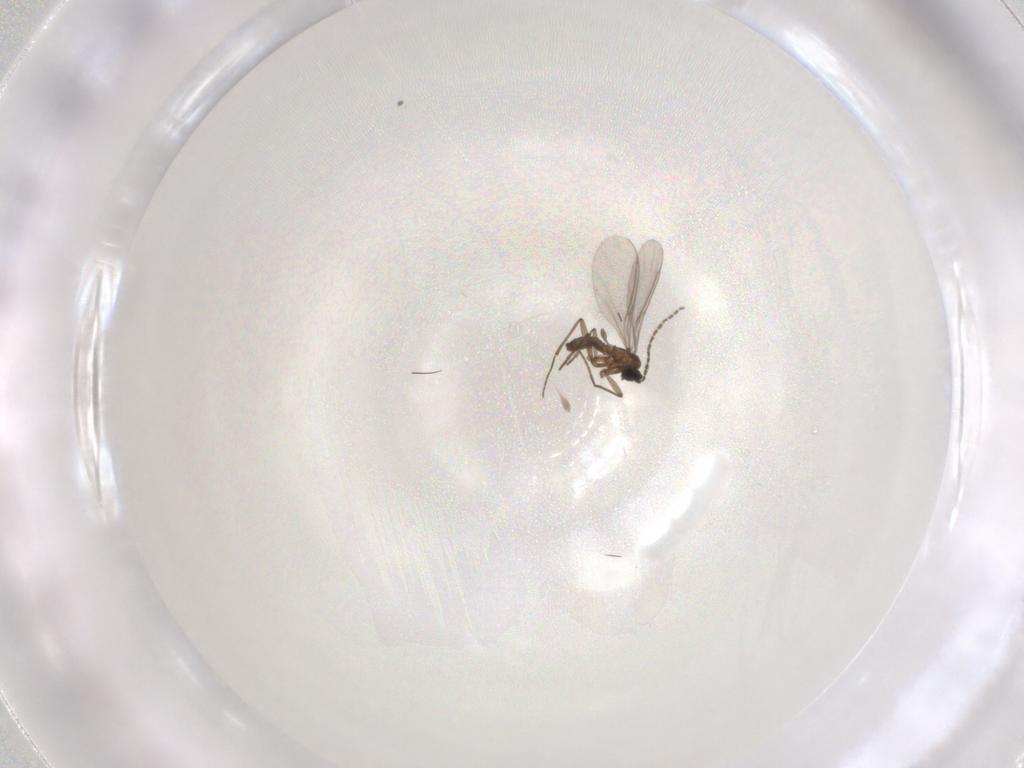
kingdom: Animalia
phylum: Arthropoda
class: Insecta
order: Diptera
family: Sciaridae
